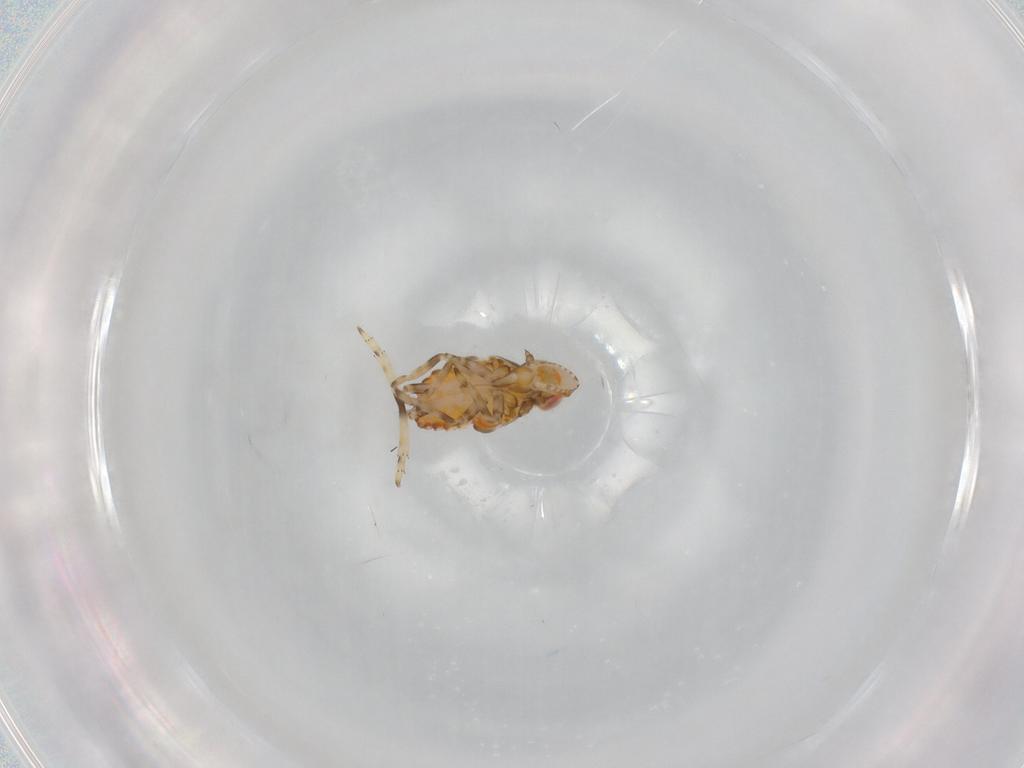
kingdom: Animalia
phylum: Arthropoda
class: Insecta
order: Hemiptera
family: Tropiduchidae
